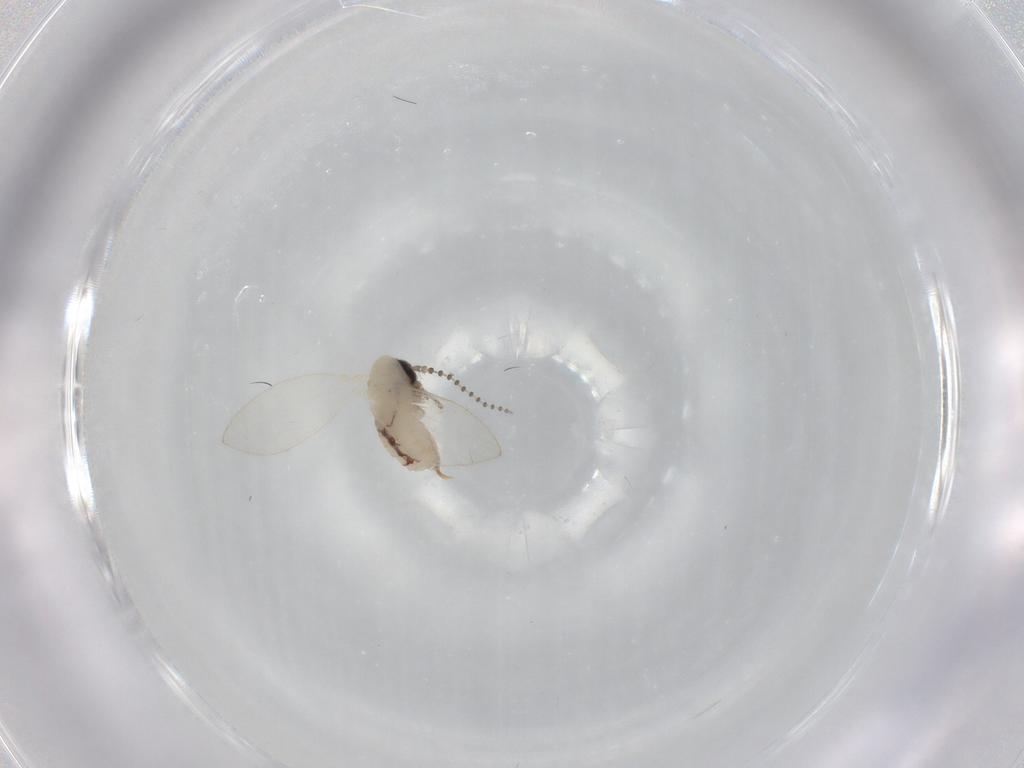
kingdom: Animalia
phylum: Arthropoda
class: Insecta
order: Diptera
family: Psychodidae
